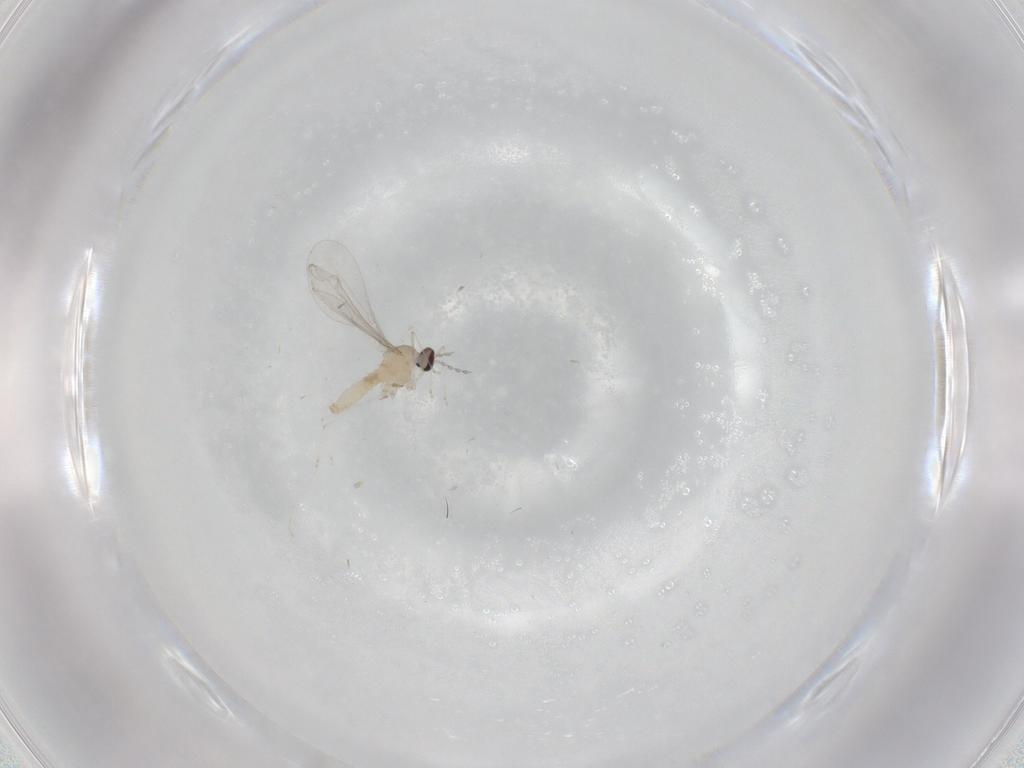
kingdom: Animalia
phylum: Arthropoda
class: Insecta
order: Diptera
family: Cecidomyiidae
